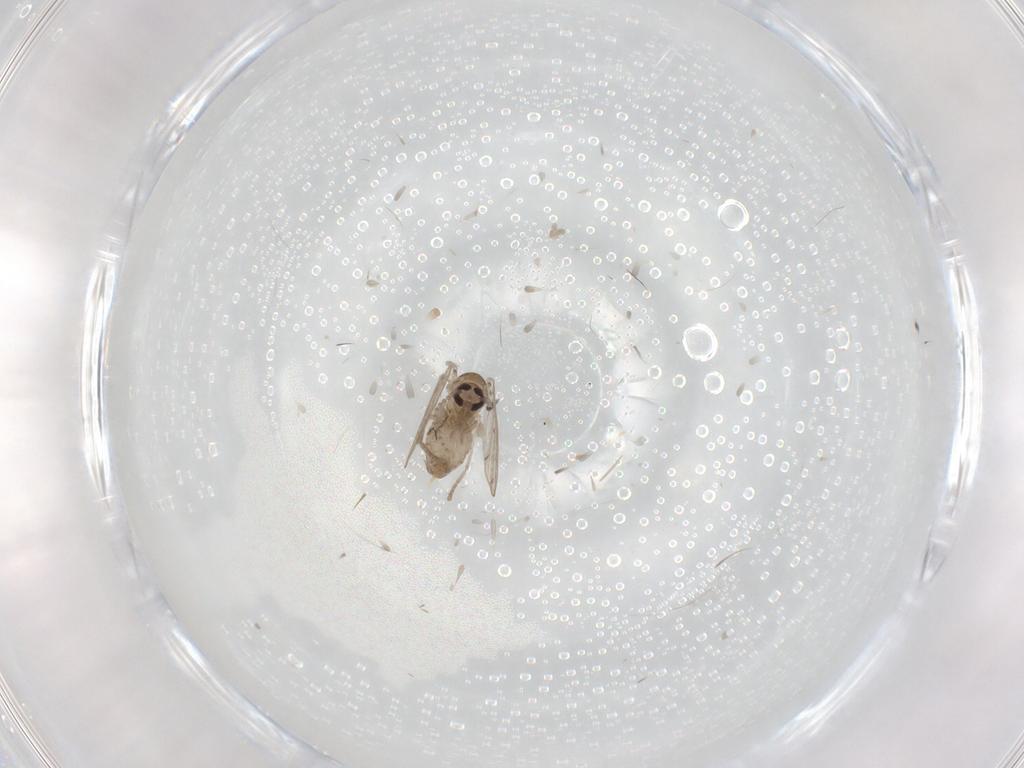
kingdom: Animalia
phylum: Arthropoda
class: Insecta
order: Diptera
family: Psychodidae
